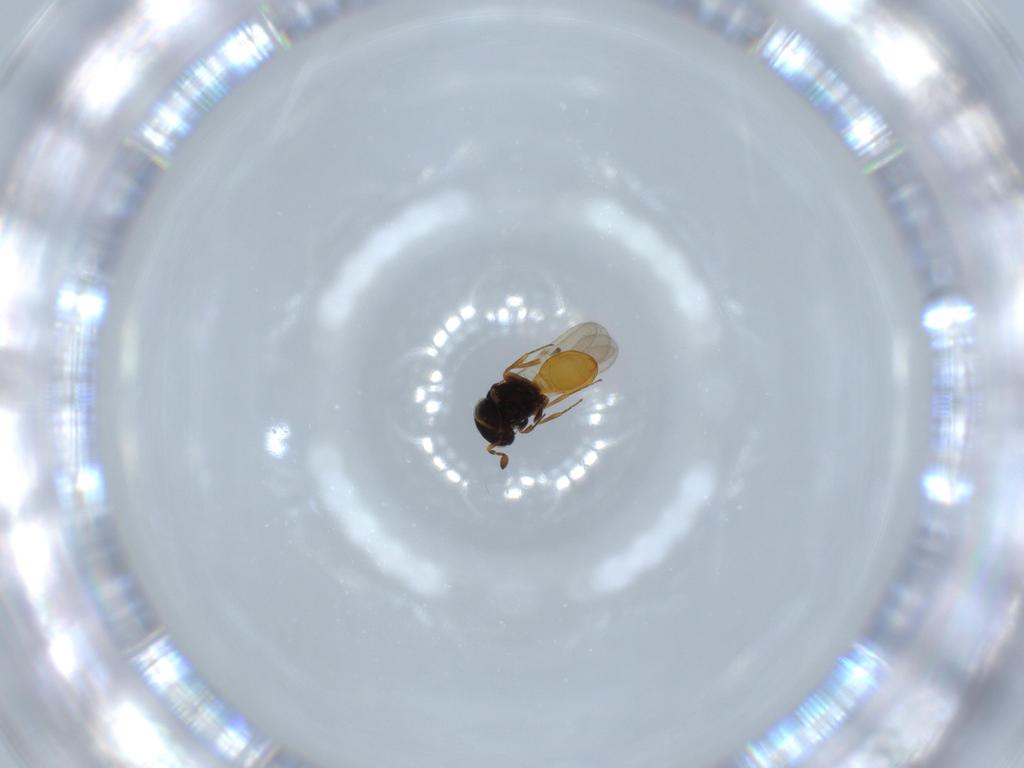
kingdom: Animalia
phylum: Arthropoda
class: Insecta
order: Hymenoptera
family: Scelionidae
